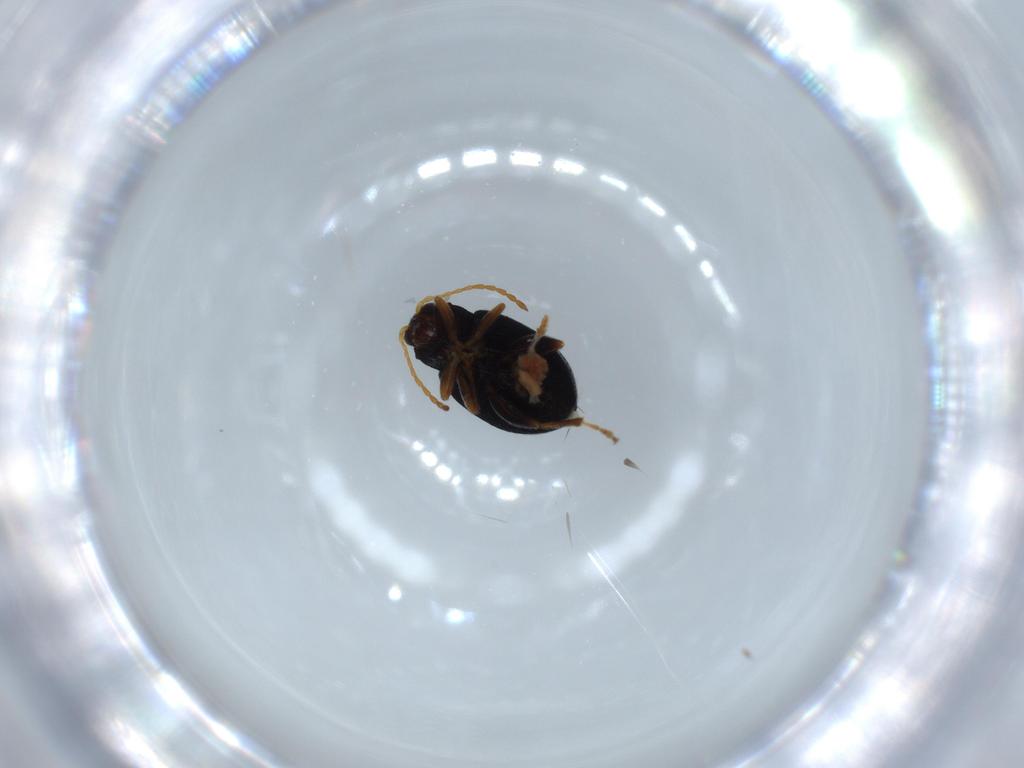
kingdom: Animalia
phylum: Arthropoda
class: Insecta
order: Coleoptera
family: Chrysomelidae
